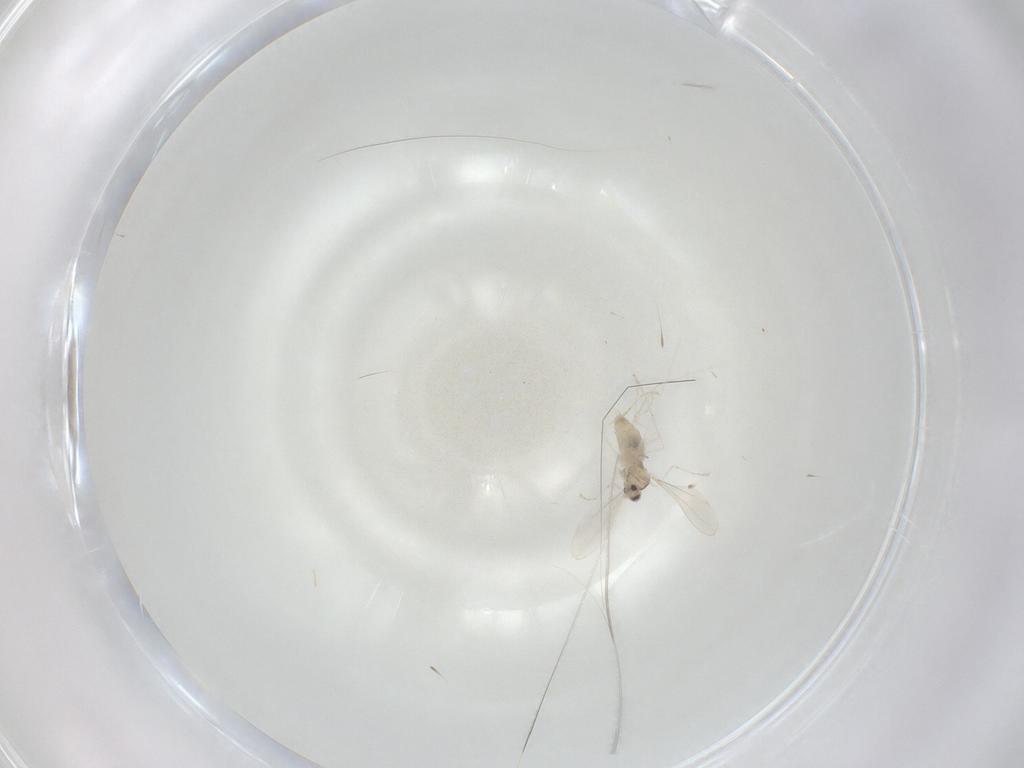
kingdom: Animalia
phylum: Arthropoda
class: Insecta
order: Diptera
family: Cecidomyiidae
